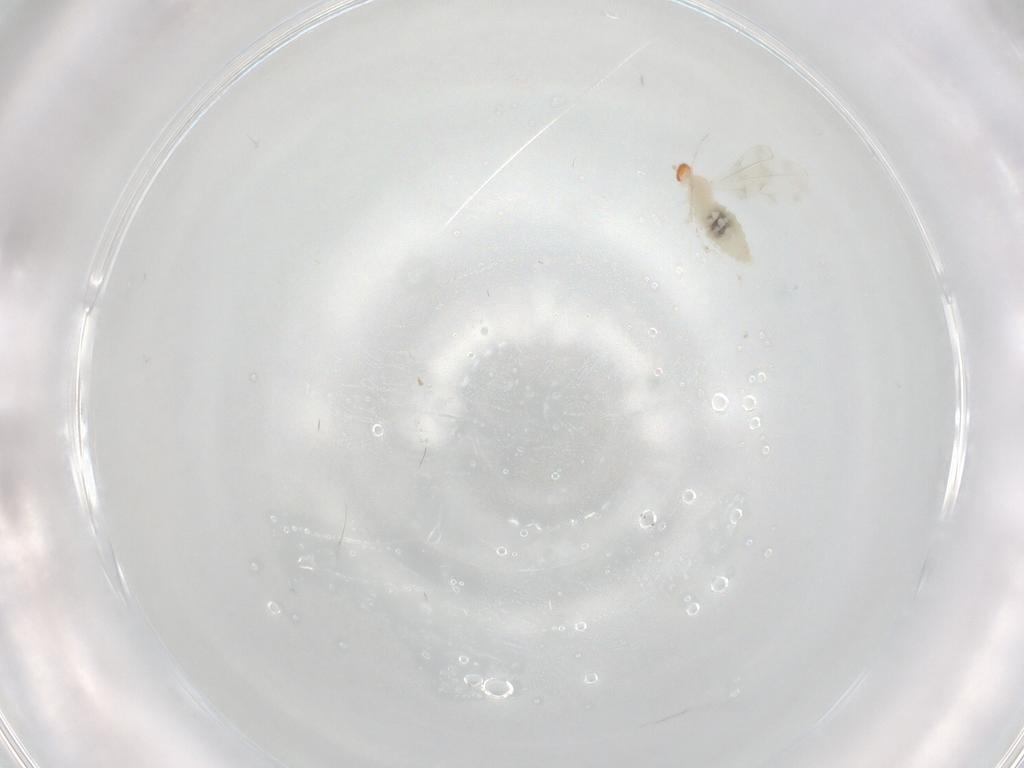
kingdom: Animalia
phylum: Arthropoda
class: Insecta
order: Diptera
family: Cecidomyiidae
